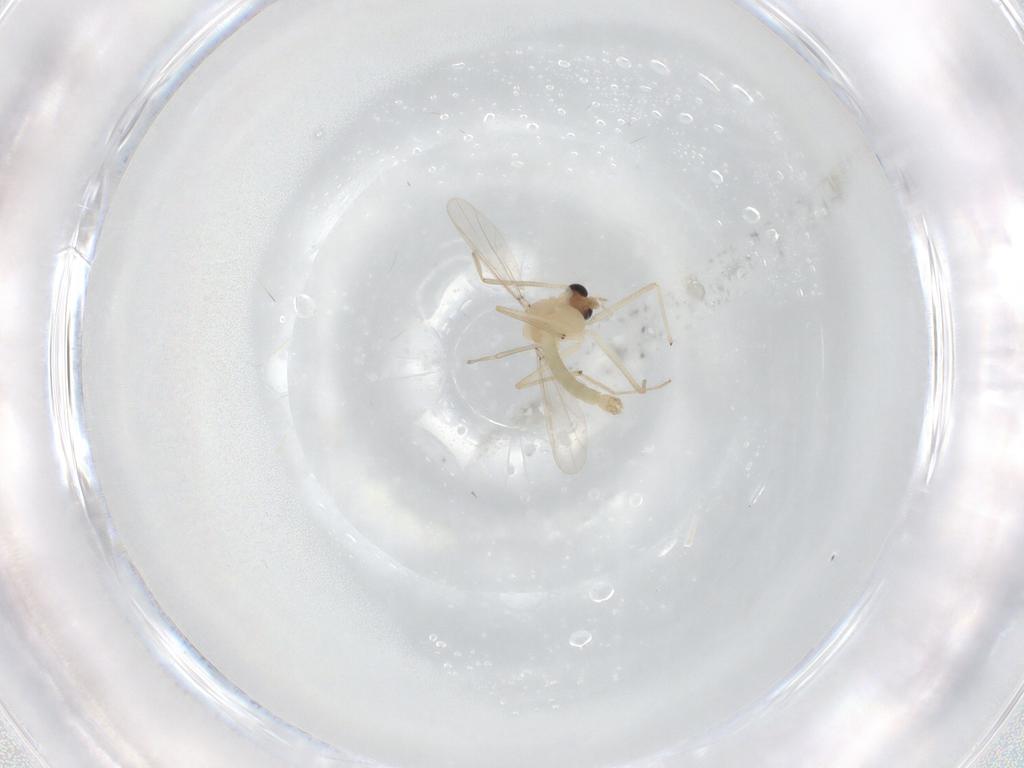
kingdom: Animalia
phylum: Arthropoda
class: Insecta
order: Diptera
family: Chironomidae
